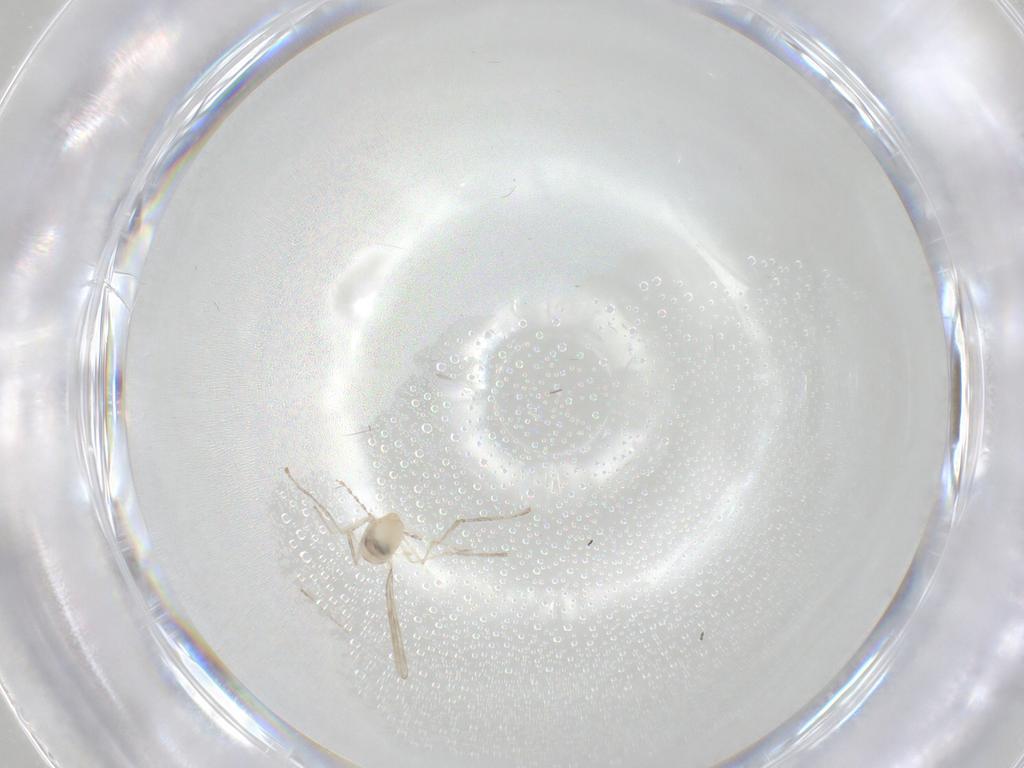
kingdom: Animalia
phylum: Arthropoda
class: Insecta
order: Diptera
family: Cecidomyiidae
